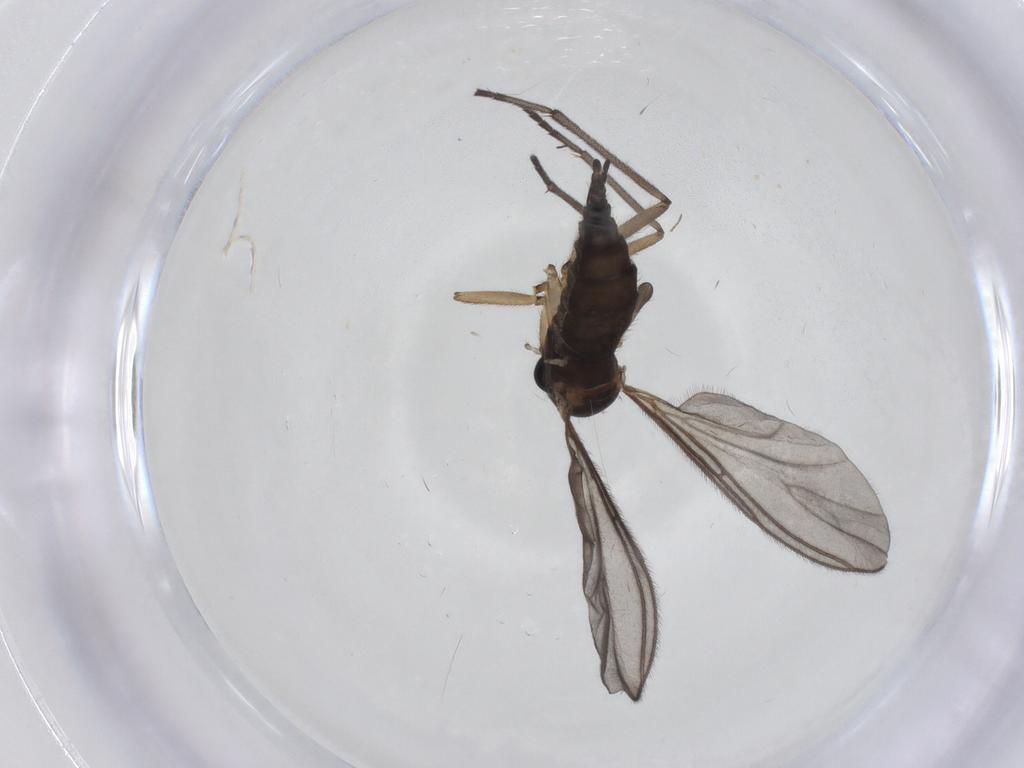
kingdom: Animalia
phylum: Arthropoda
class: Insecta
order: Diptera
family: Sciaridae
